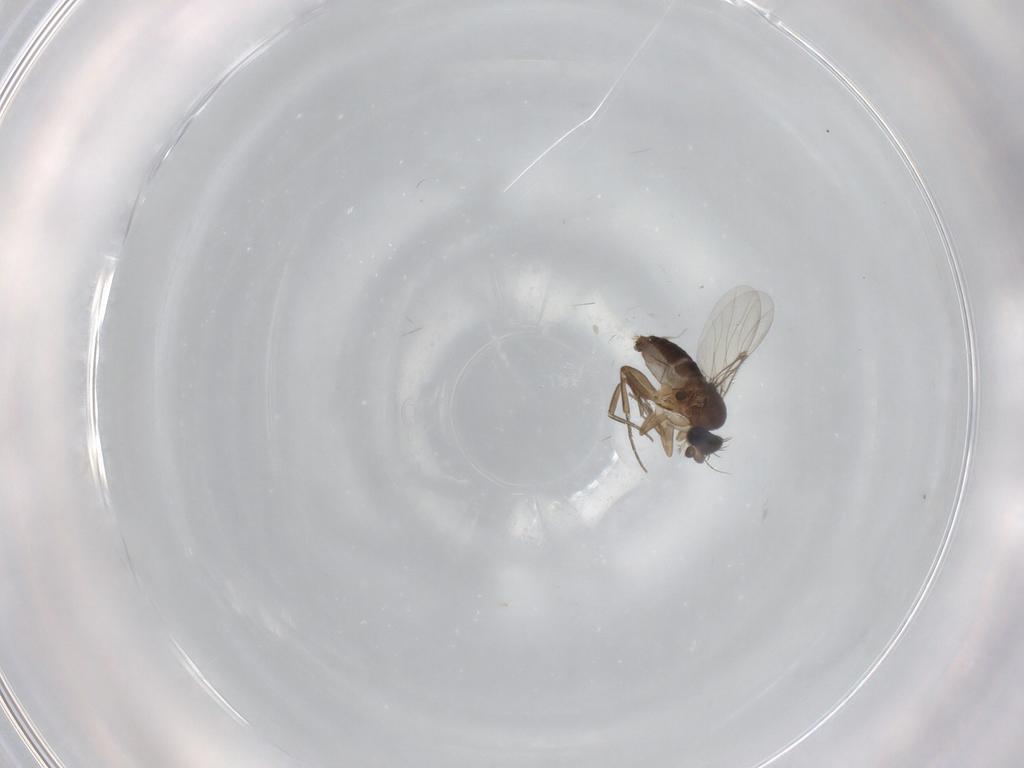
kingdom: Animalia
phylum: Arthropoda
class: Insecta
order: Diptera
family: Phoridae
